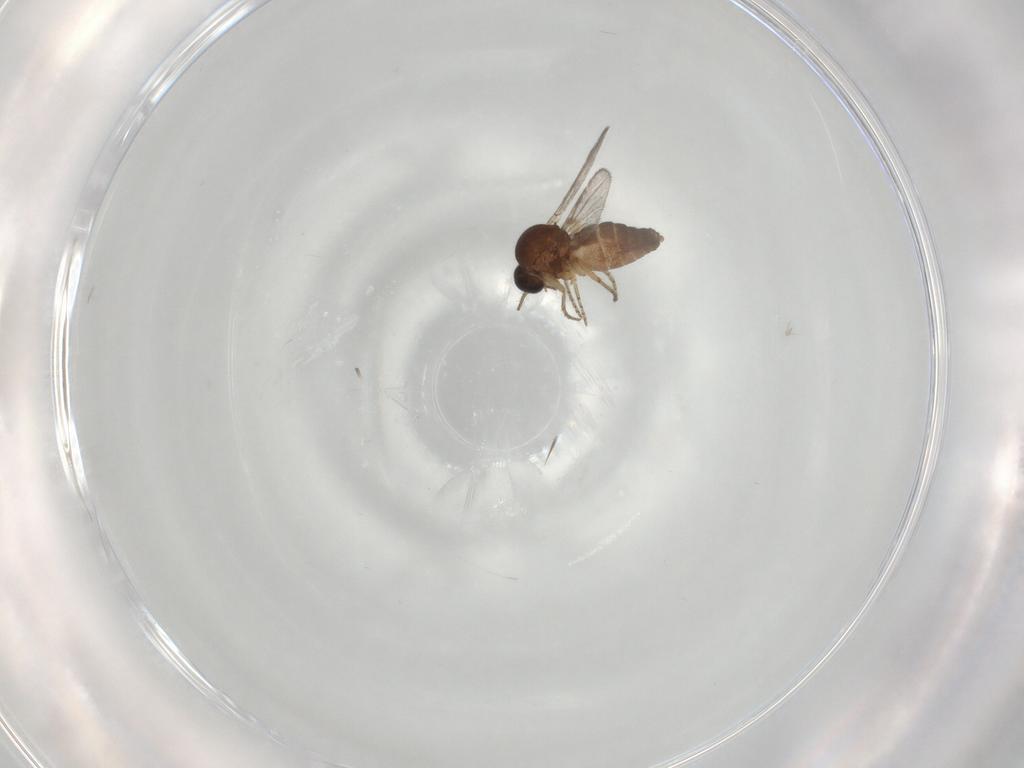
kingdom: Animalia
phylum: Arthropoda
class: Insecta
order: Diptera
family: Ceratopogonidae
